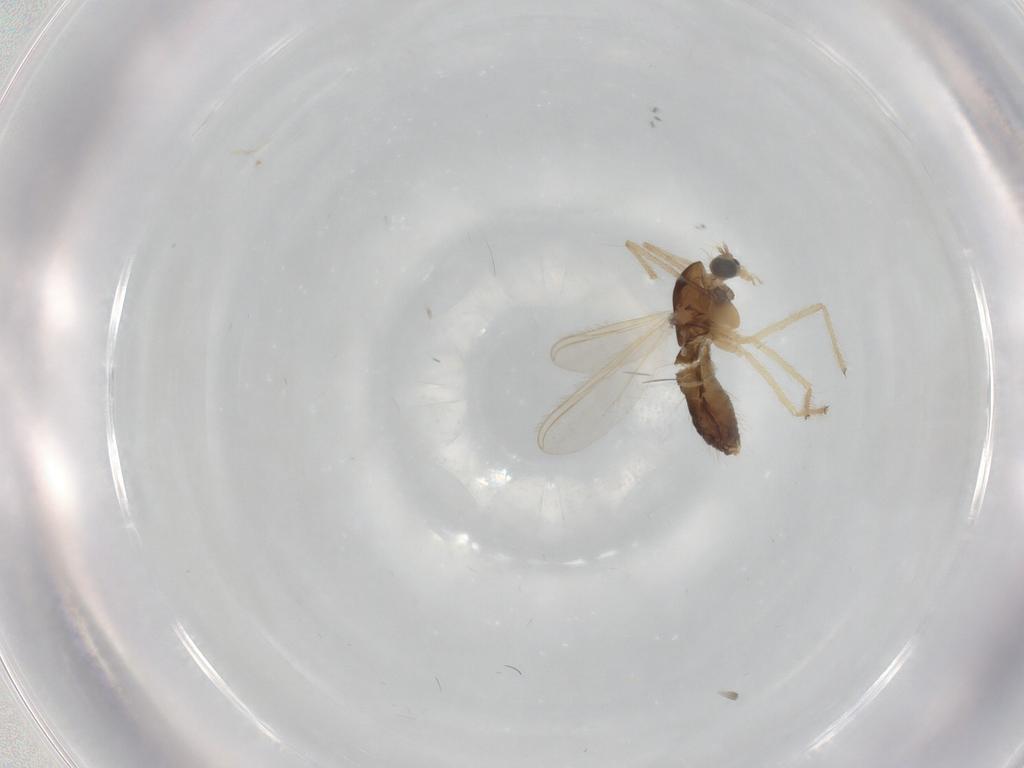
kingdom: Animalia
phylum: Arthropoda
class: Insecta
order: Diptera
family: Chironomidae
